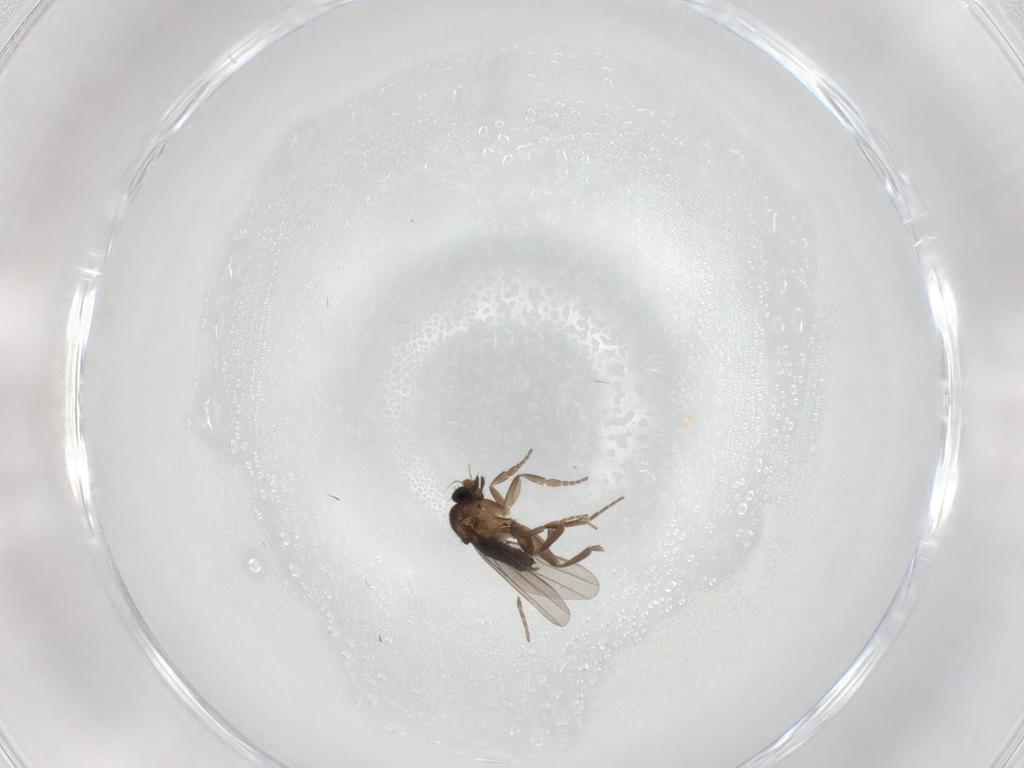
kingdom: Animalia
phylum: Arthropoda
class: Insecta
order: Diptera
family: Phoridae
